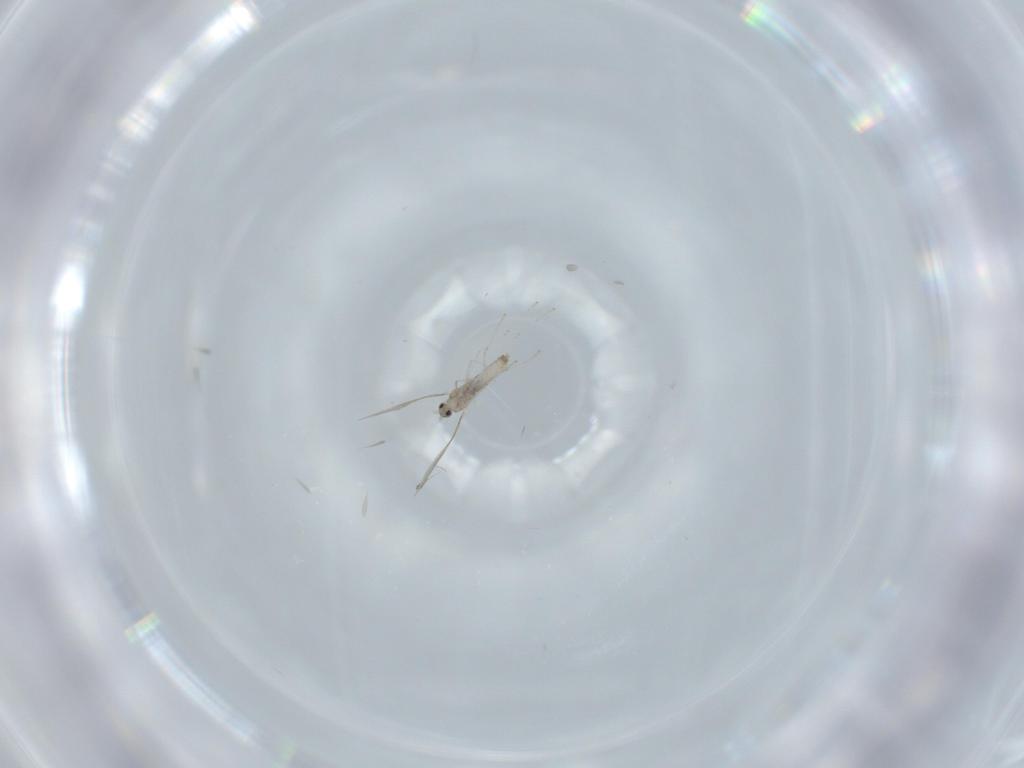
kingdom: Animalia
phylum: Arthropoda
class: Insecta
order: Diptera
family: Cecidomyiidae
